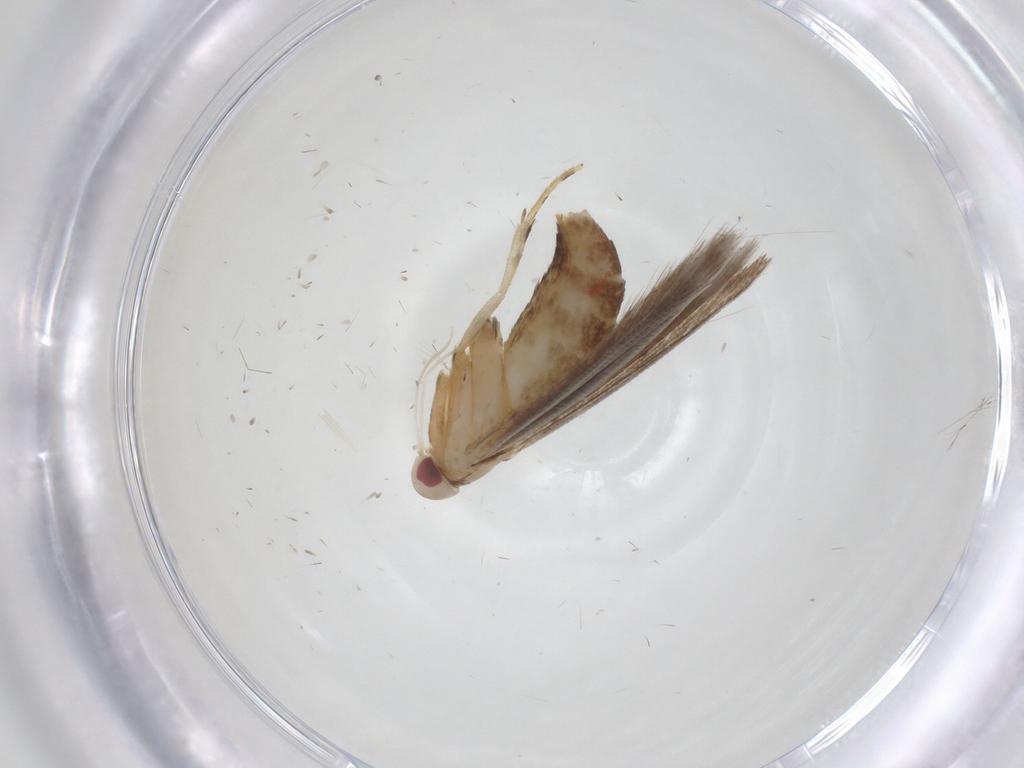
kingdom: Animalia
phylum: Arthropoda
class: Insecta
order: Lepidoptera
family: Cosmopterigidae
